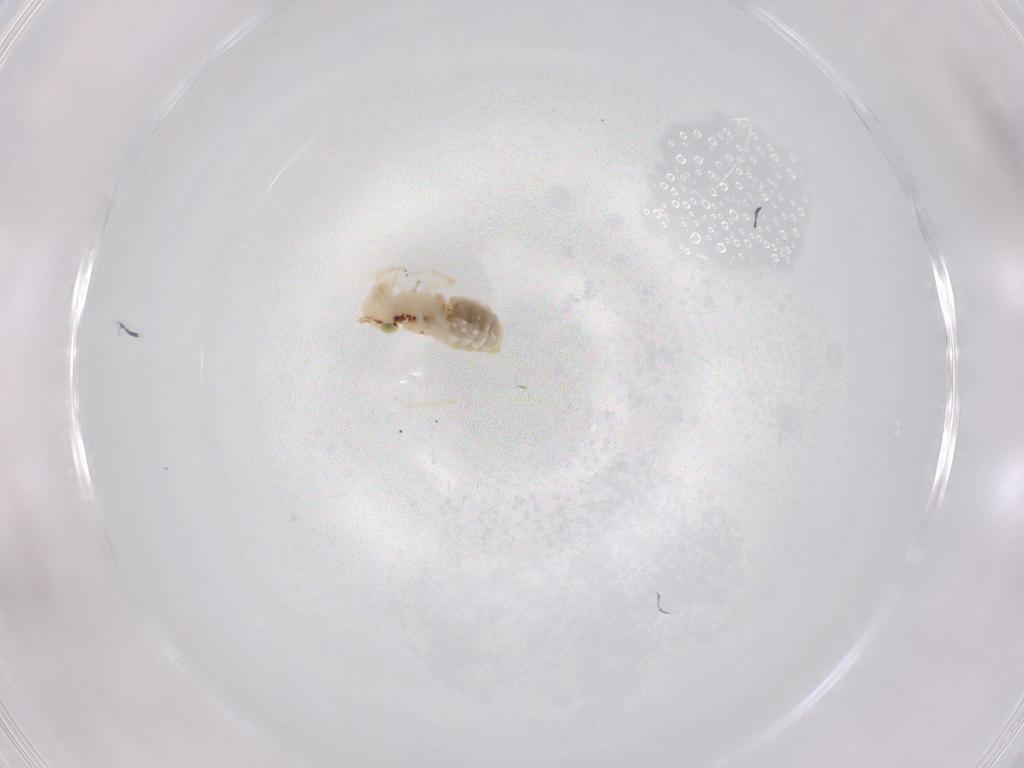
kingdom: Animalia
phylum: Arthropoda
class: Insecta
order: Psocodea
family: Trichopsocidae
